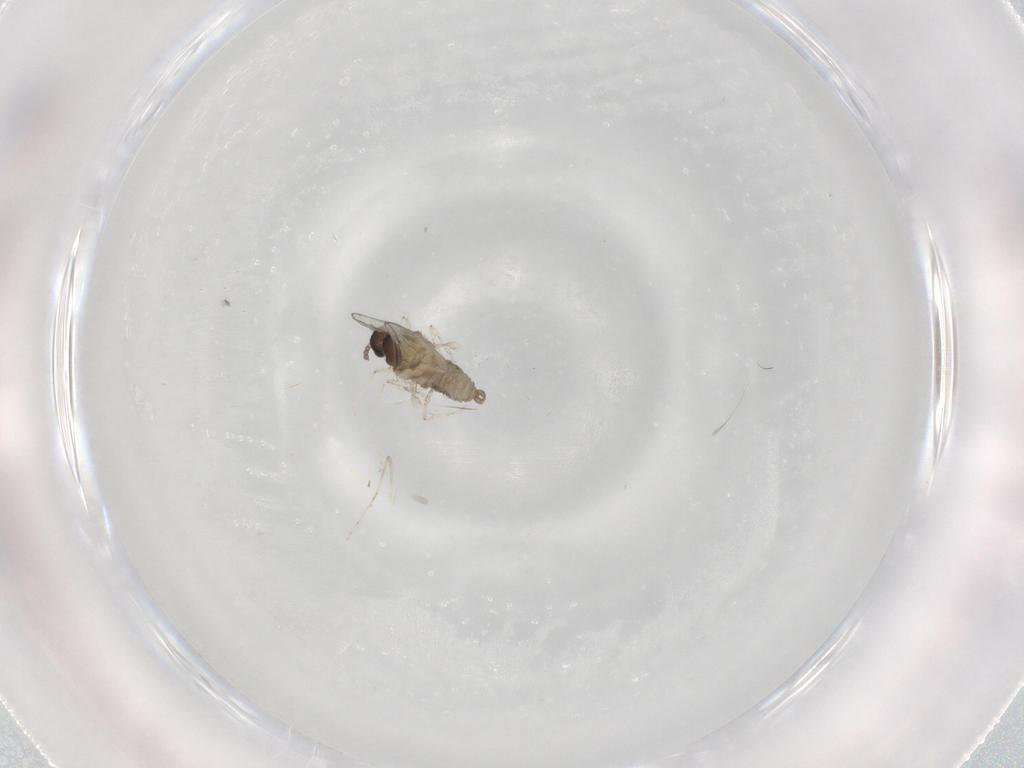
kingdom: Animalia
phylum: Arthropoda
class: Insecta
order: Diptera
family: Cecidomyiidae
